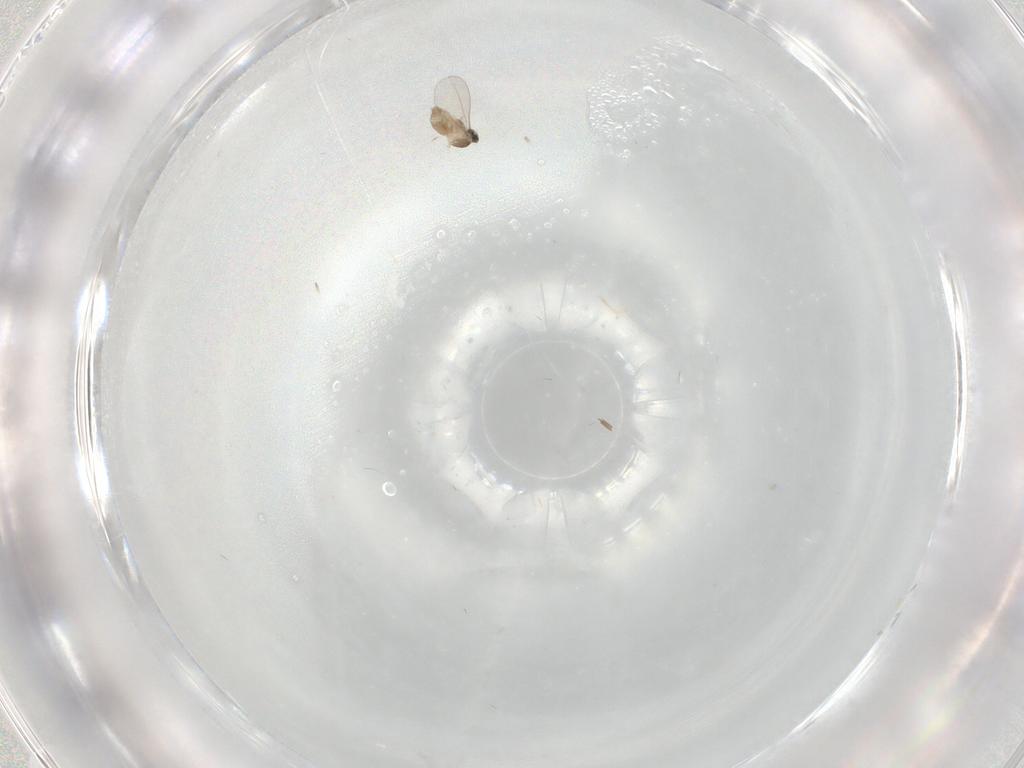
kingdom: Animalia
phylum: Arthropoda
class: Insecta
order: Diptera
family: Cecidomyiidae
